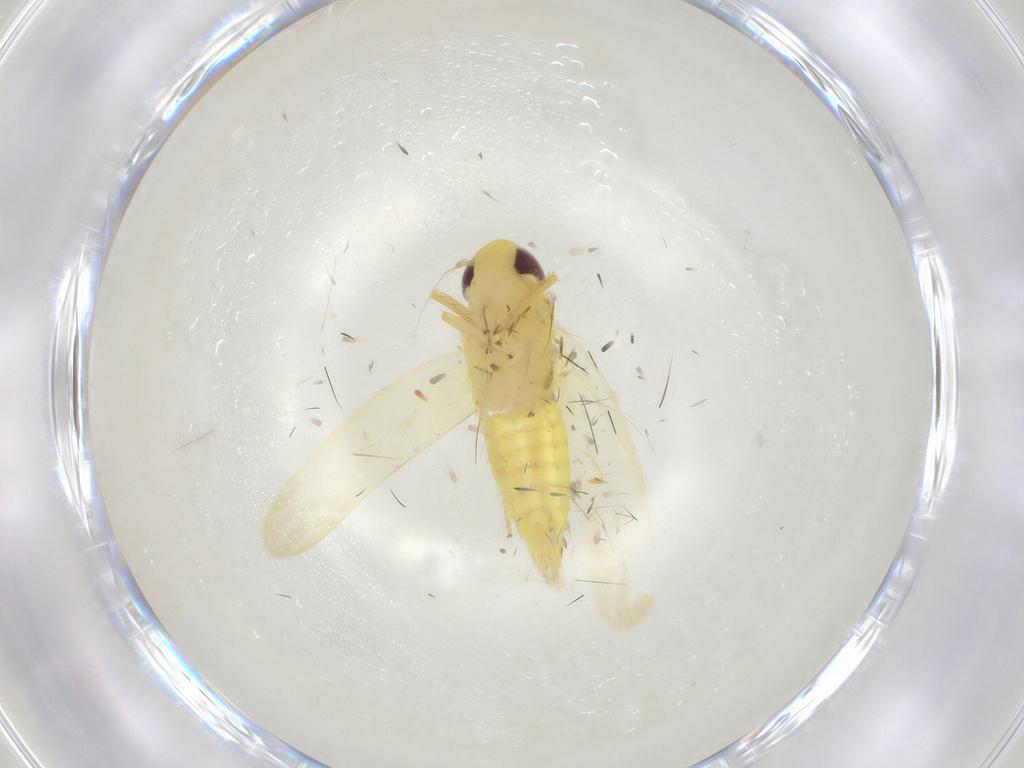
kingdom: Animalia
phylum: Arthropoda
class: Insecta
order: Hemiptera
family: Cicadellidae
